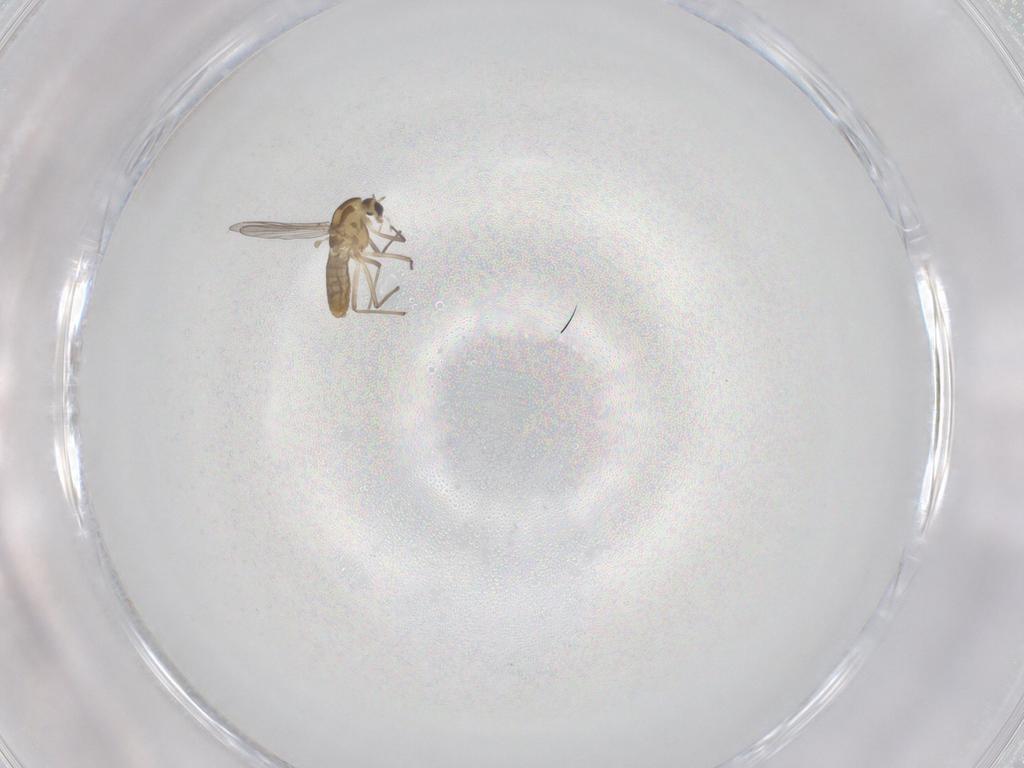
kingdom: Animalia
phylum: Arthropoda
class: Insecta
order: Diptera
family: Chironomidae
